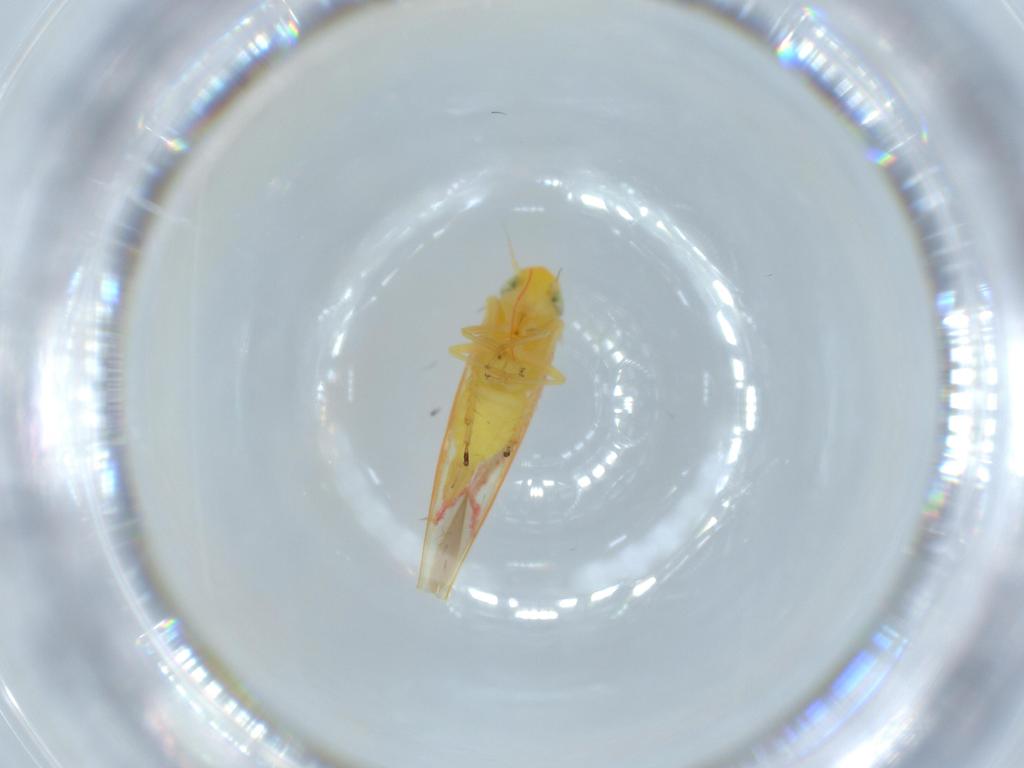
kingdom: Animalia
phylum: Arthropoda
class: Insecta
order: Hemiptera
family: Cicadellidae
